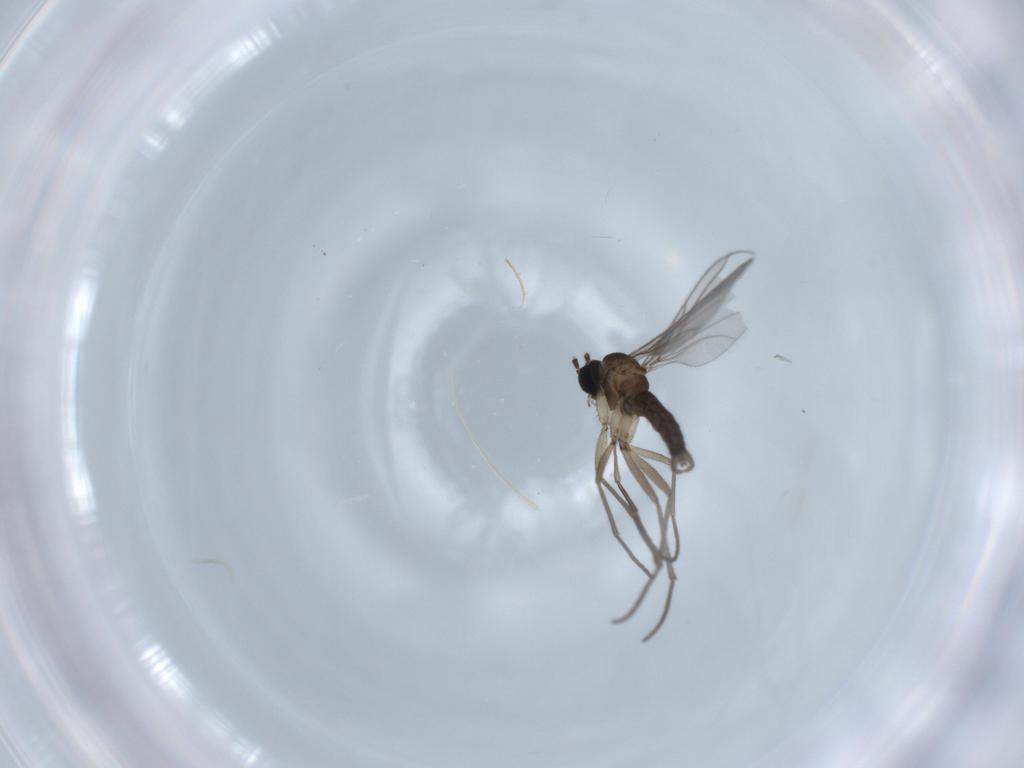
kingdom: Animalia
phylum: Arthropoda
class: Insecta
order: Diptera
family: Sciaridae
